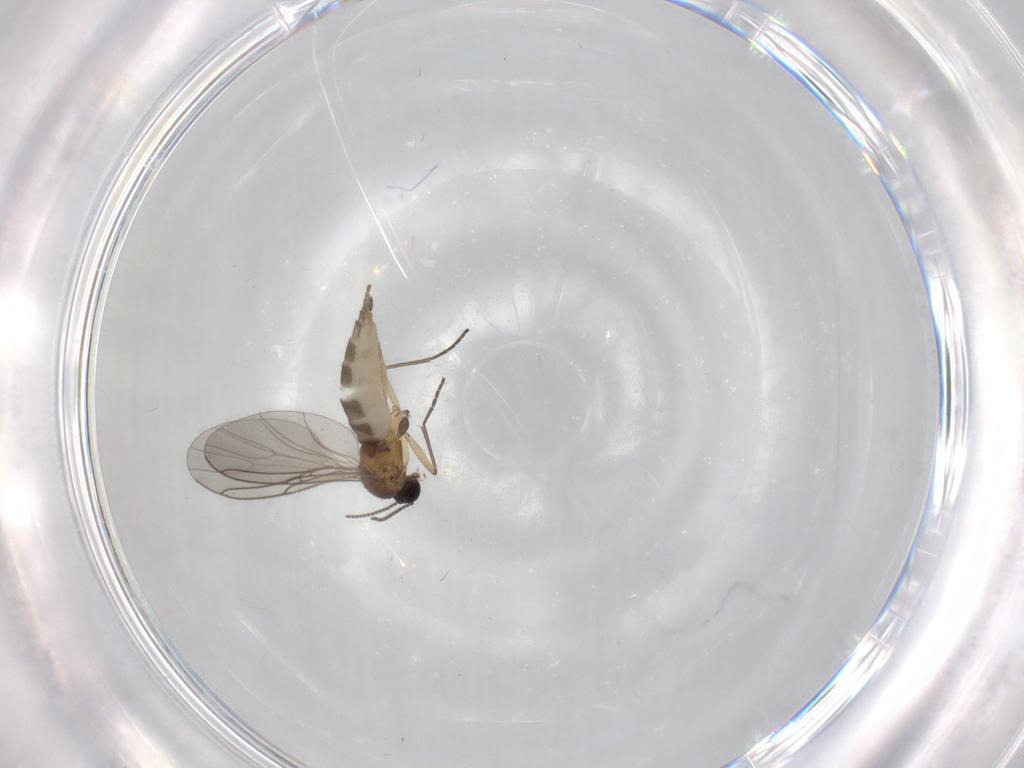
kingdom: Animalia
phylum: Arthropoda
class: Insecta
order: Diptera
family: Sciaridae
